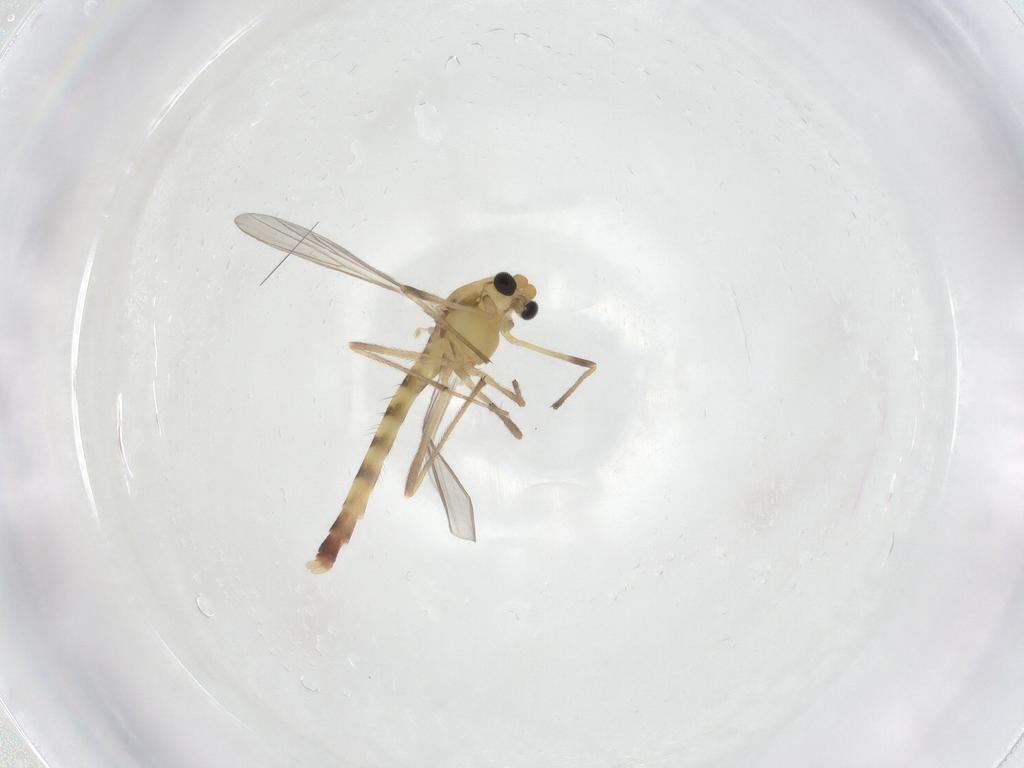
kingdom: Animalia
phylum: Arthropoda
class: Insecta
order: Diptera
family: Chironomidae
